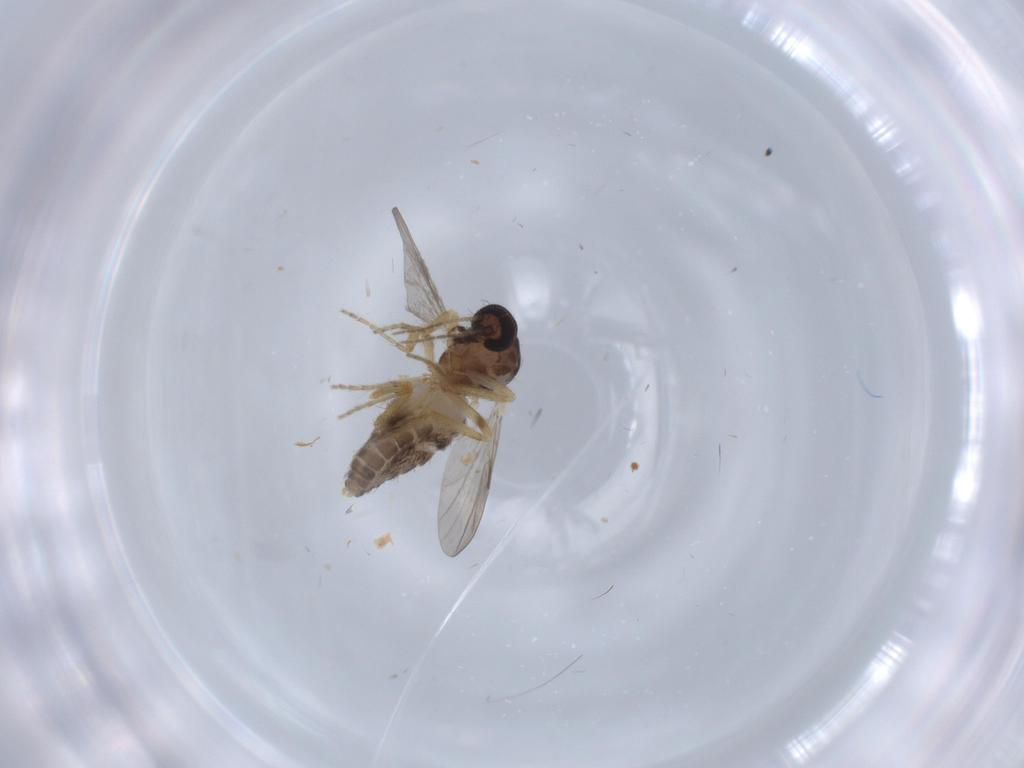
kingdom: Animalia
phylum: Arthropoda
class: Insecta
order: Diptera
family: Ceratopogonidae
